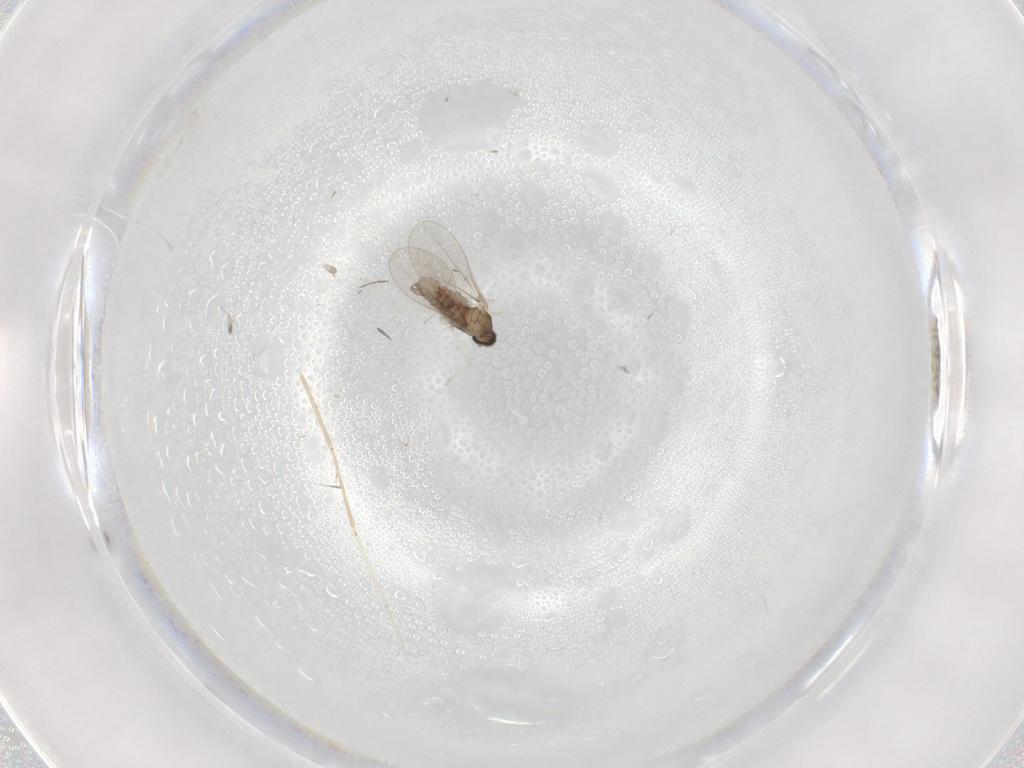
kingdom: Animalia
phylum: Arthropoda
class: Insecta
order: Diptera
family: Cecidomyiidae
